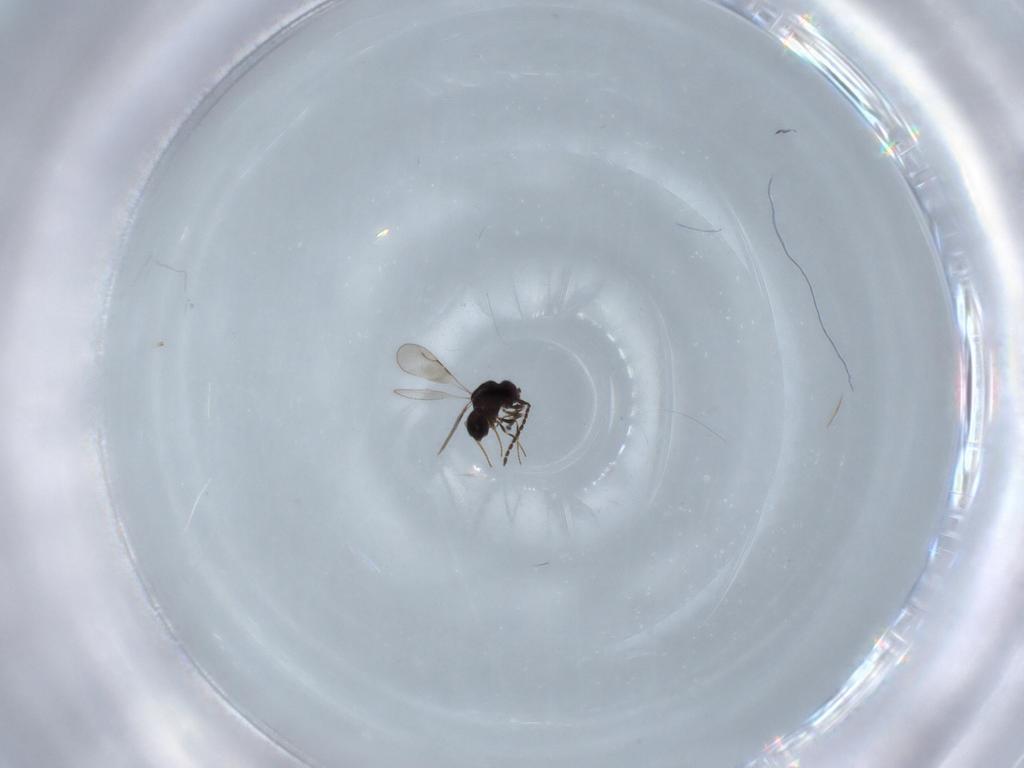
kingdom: Animalia
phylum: Arthropoda
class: Insecta
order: Hymenoptera
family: Ceraphronidae
